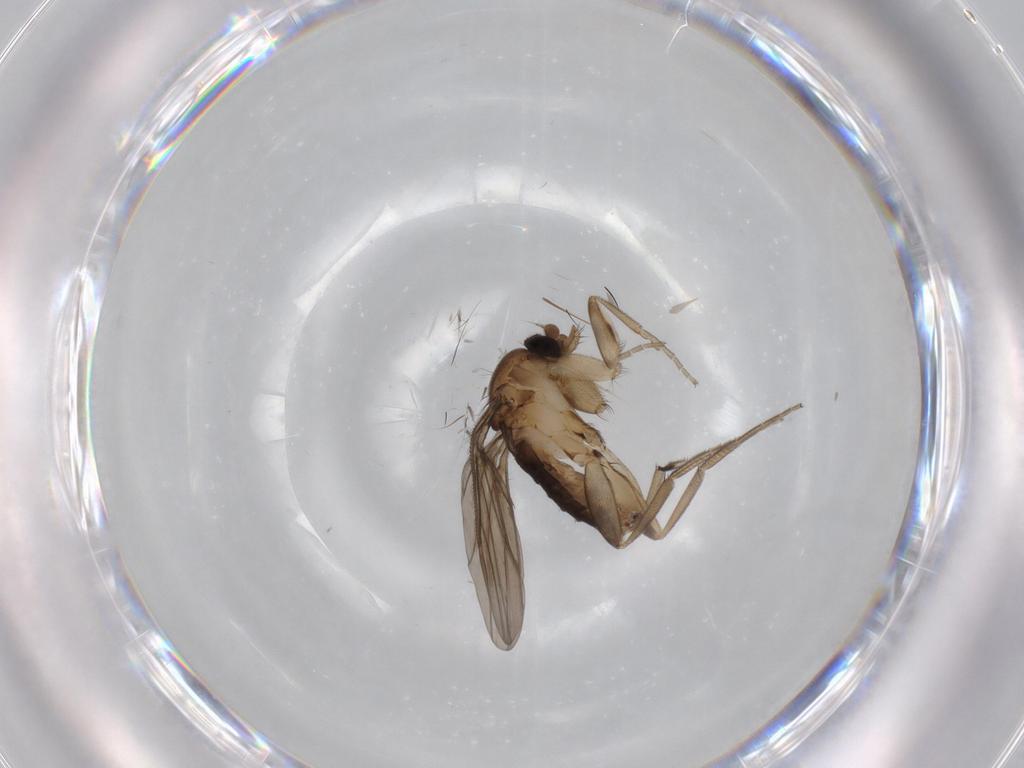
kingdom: Animalia
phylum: Arthropoda
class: Insecta
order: Diptera
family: Phoridae
